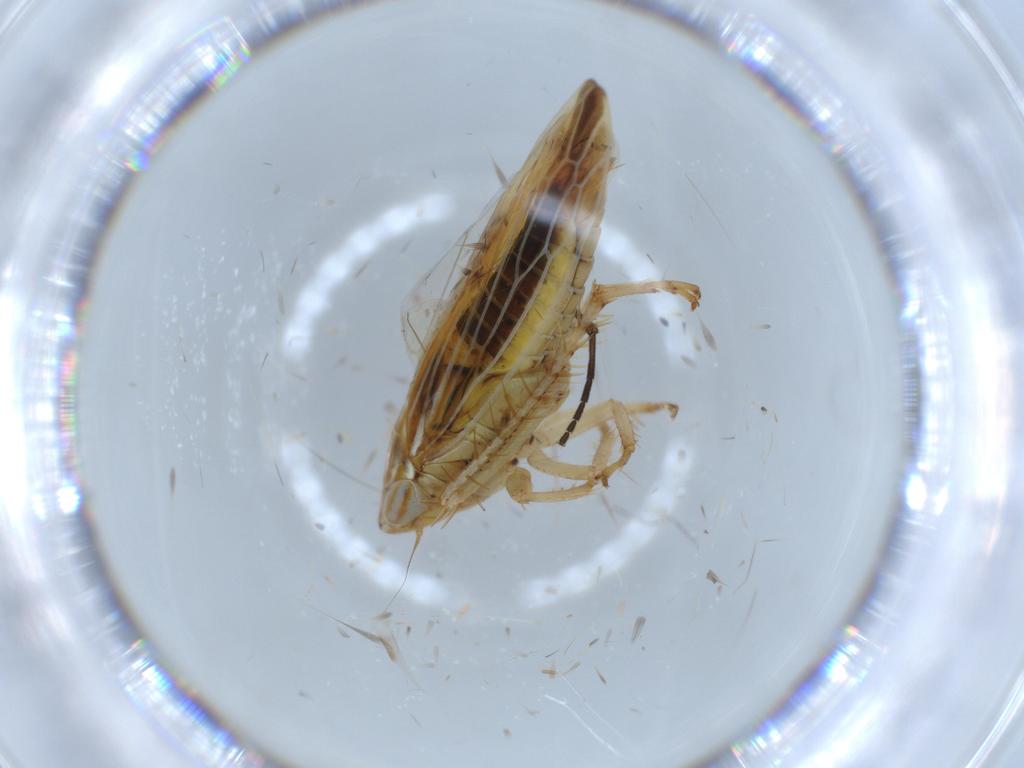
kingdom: Animalia
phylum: Arthropoda
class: Insecta
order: Hemiptera
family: Cicadellidae
